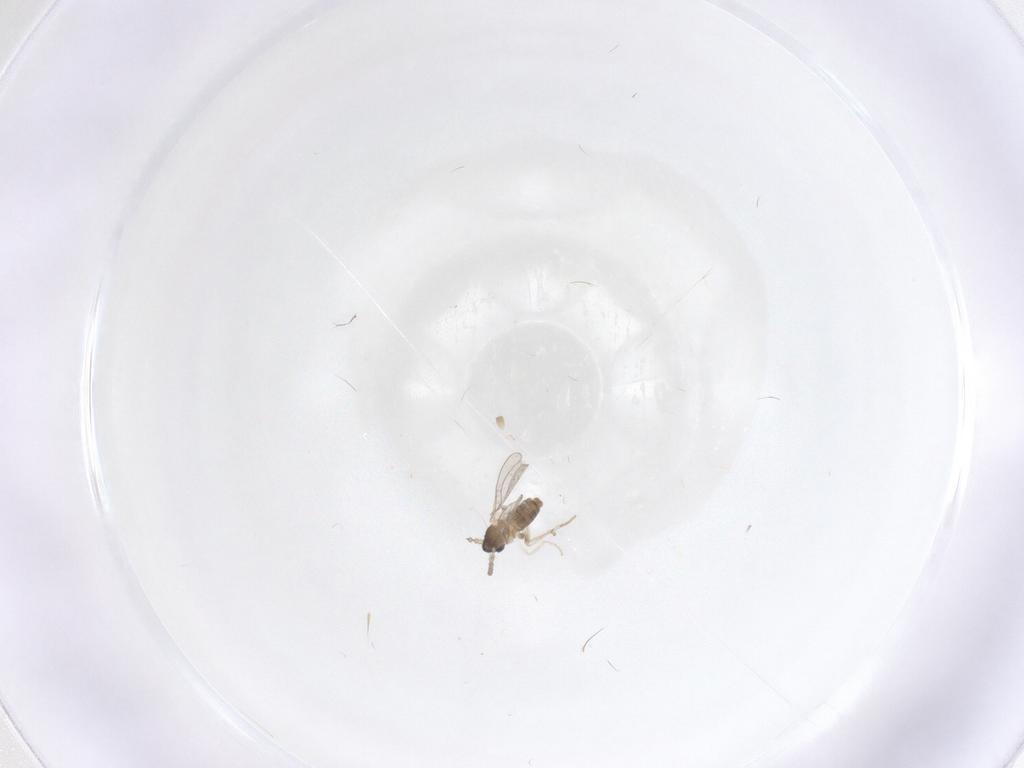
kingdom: Animalia
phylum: Arthropoda
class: Insecta
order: Diptera
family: Cecidomyiidae
